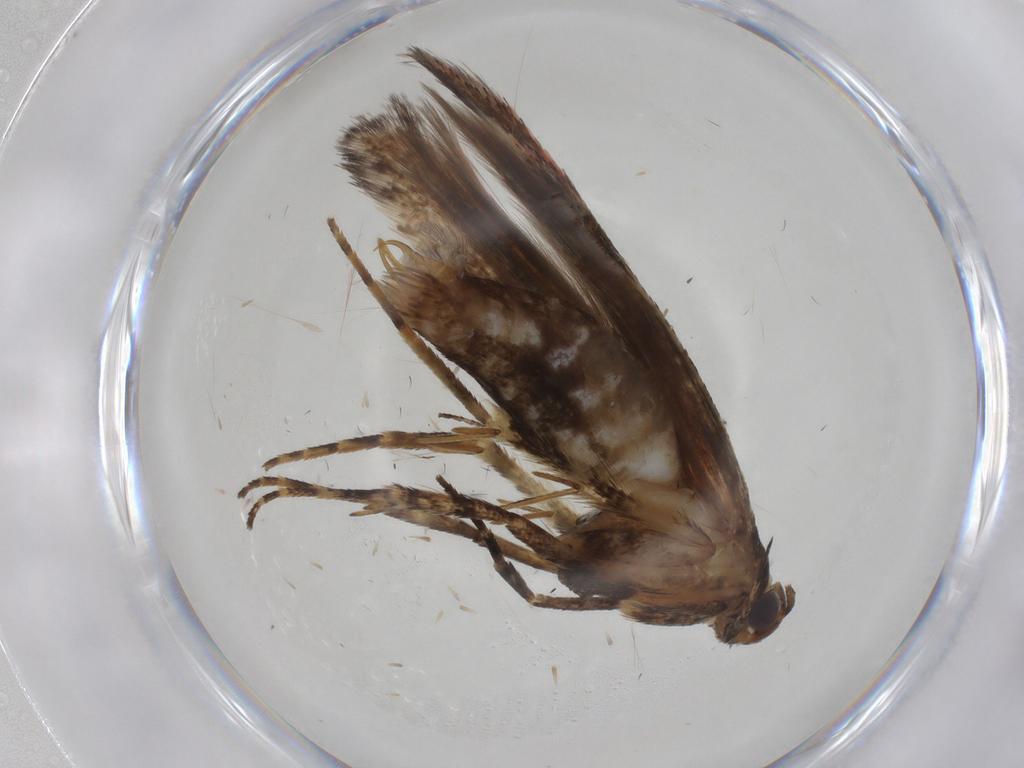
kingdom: Animalia
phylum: Arthropoda
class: Insecta
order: Lepidoptera
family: Gelechiidae
